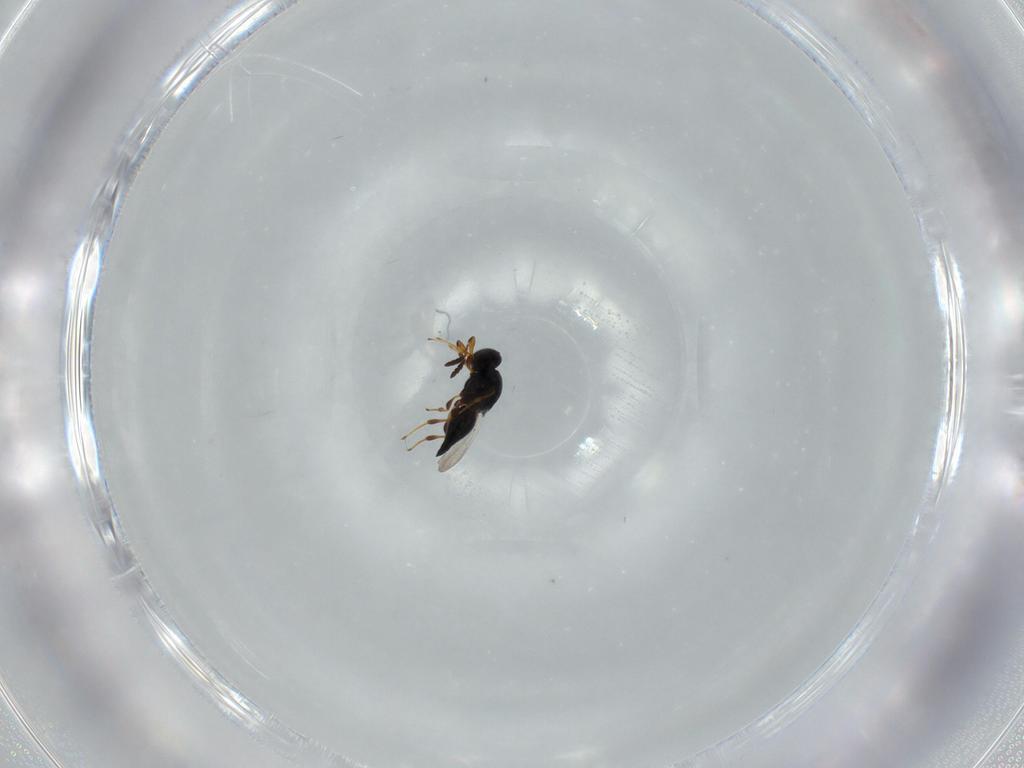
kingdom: Animalia
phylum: Arthropoda
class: Insecta
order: Hymenoptera
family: Platygastridae
